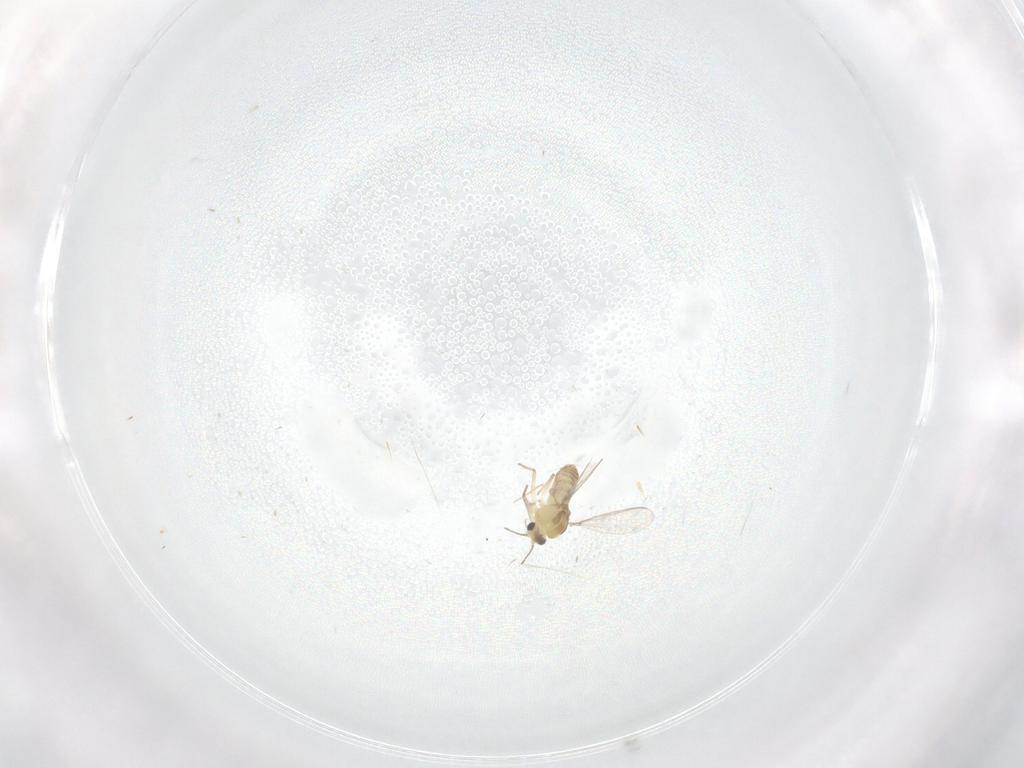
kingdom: Animalia
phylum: Arthropoda
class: Insecta
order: Diptera
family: Chironomidae
